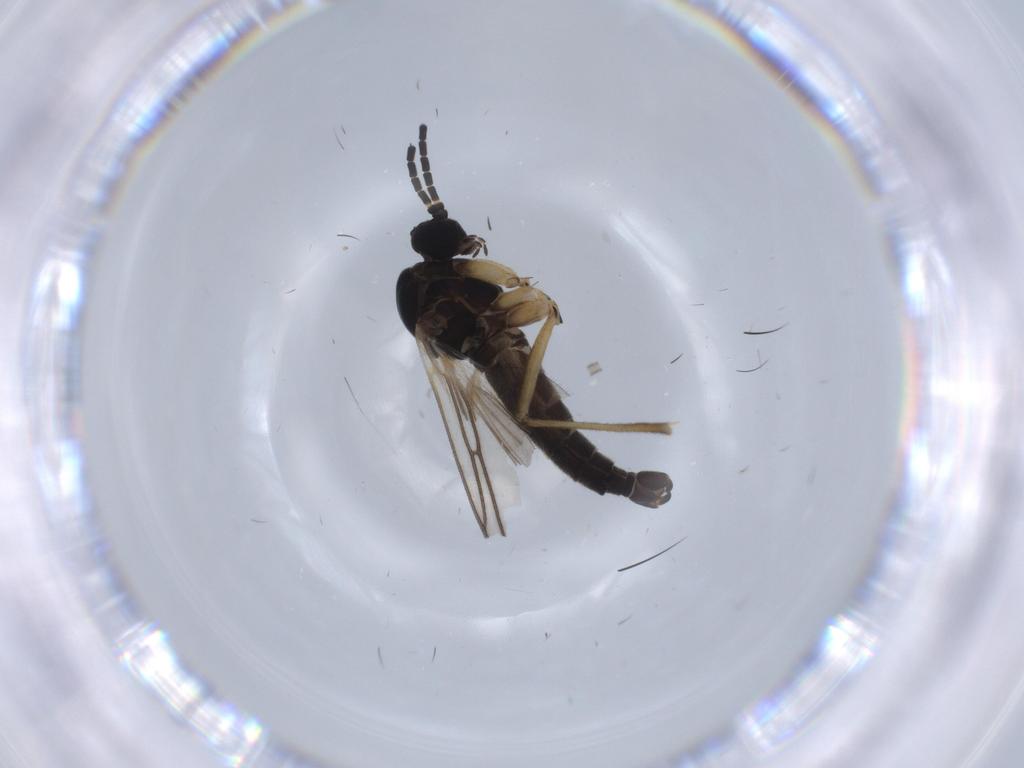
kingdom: Animalia
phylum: Arthropoda
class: Insecta
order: Diptera
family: Sciaridae
